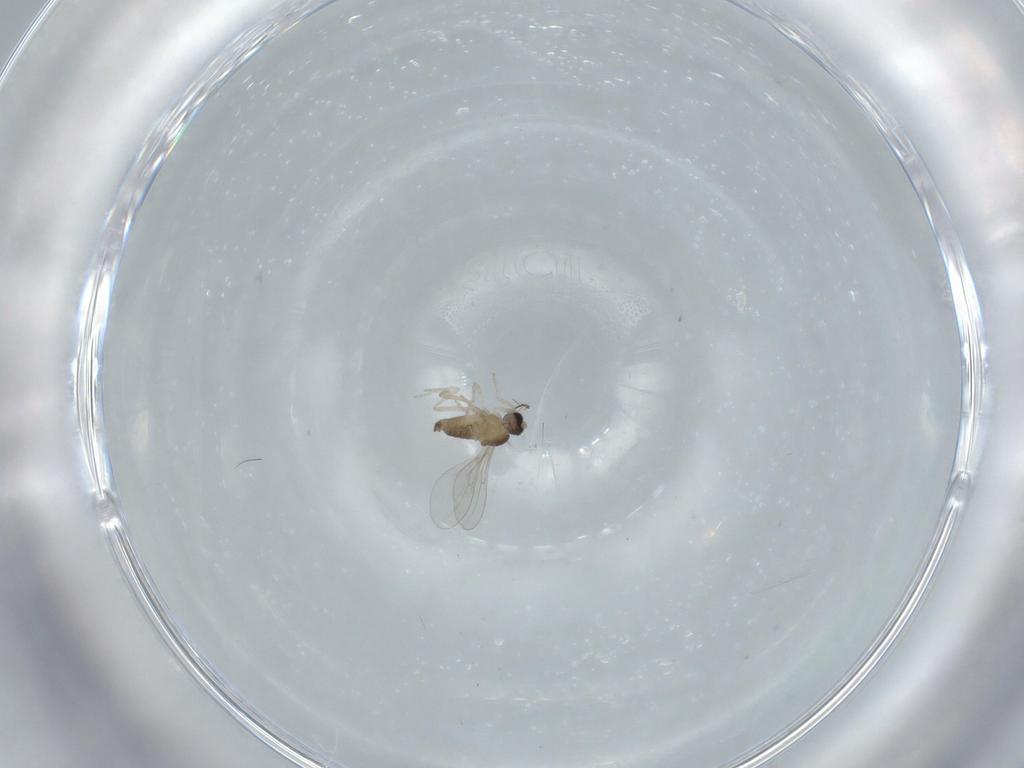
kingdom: Animalia
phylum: Arthropoda
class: Insecta
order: Diptera
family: Cecidomyiidae
